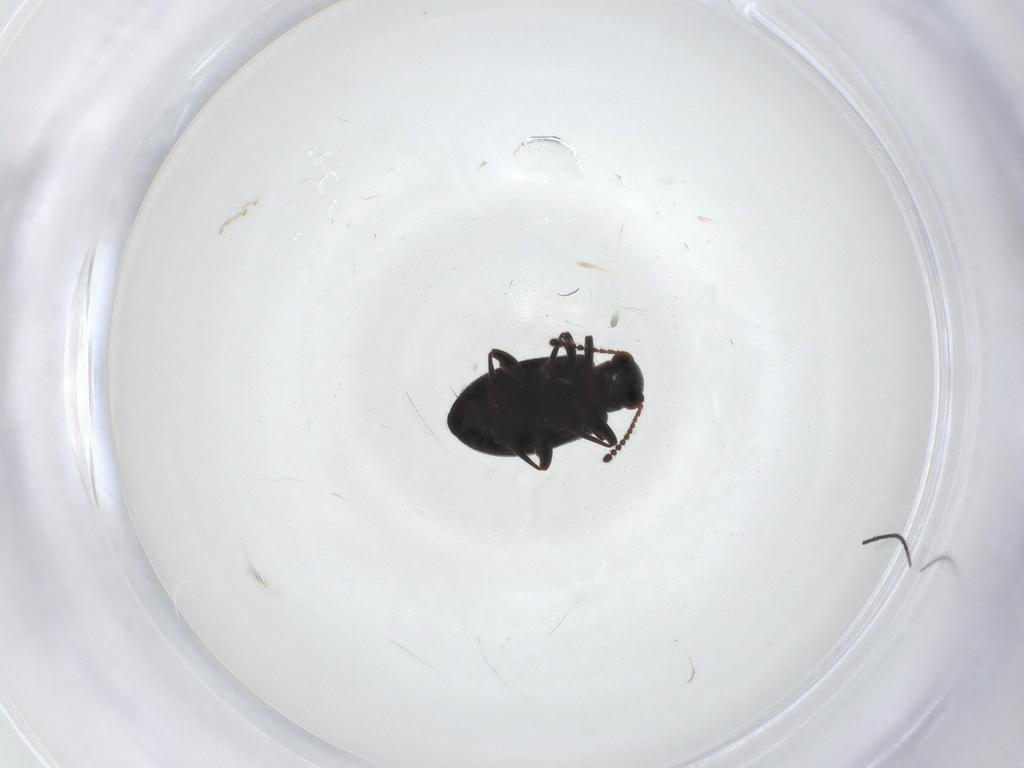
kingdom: Animalia
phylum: Arthropoda
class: Insecta
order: Coleoptera
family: Aderidae
